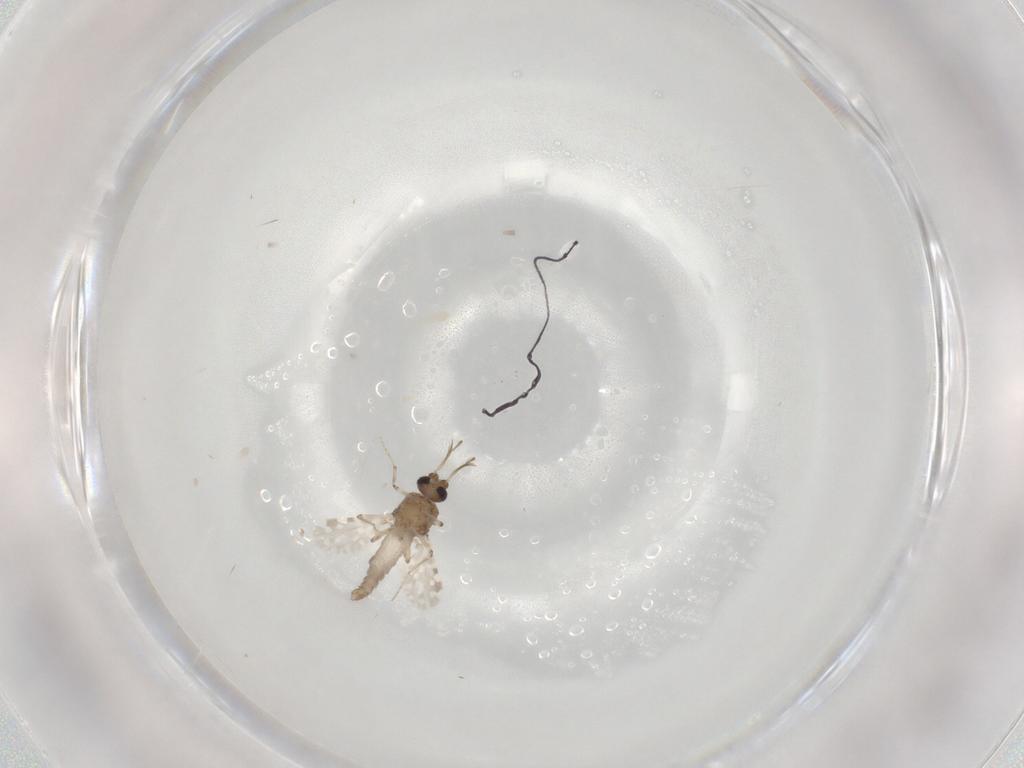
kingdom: Animalia
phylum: Arthropoda
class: Insecta
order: Diptera
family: Ceratopogonidae
